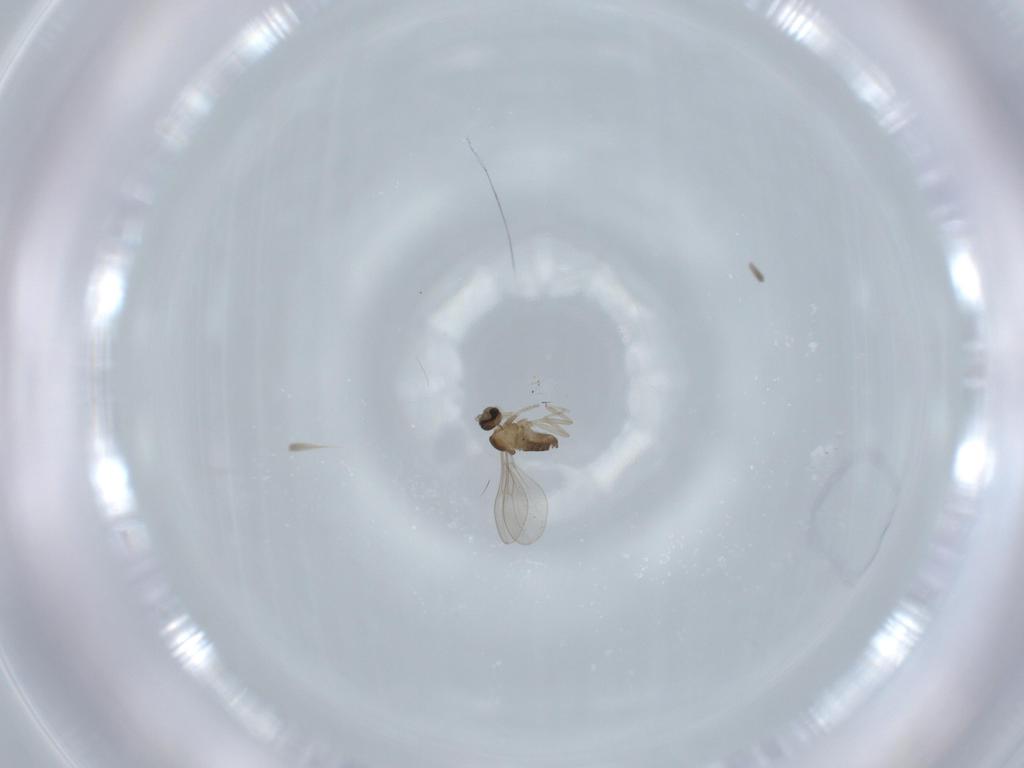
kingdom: Animalia
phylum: Arthropoda
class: Insecta
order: Diptera
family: Cecidomyiidae
